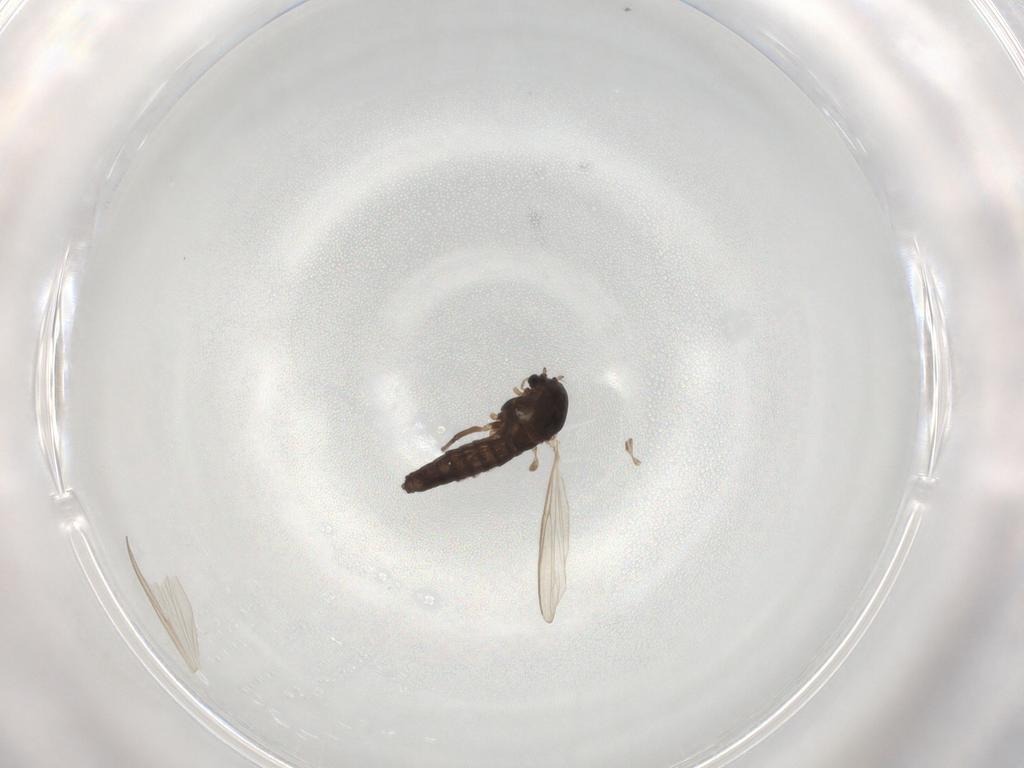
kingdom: Animalia
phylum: Arthropoda
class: Insecta
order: Diptera
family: Chironomidae
